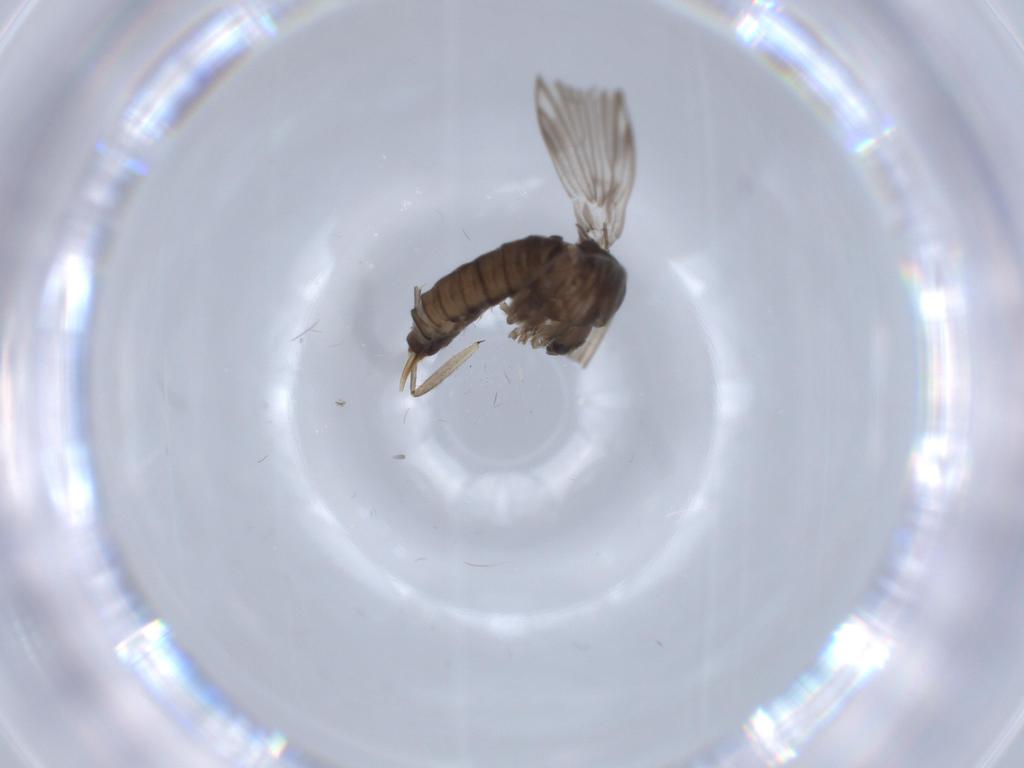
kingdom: Animalia
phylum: Arthropoda
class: Insecta
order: Diptera
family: Psychodidae
